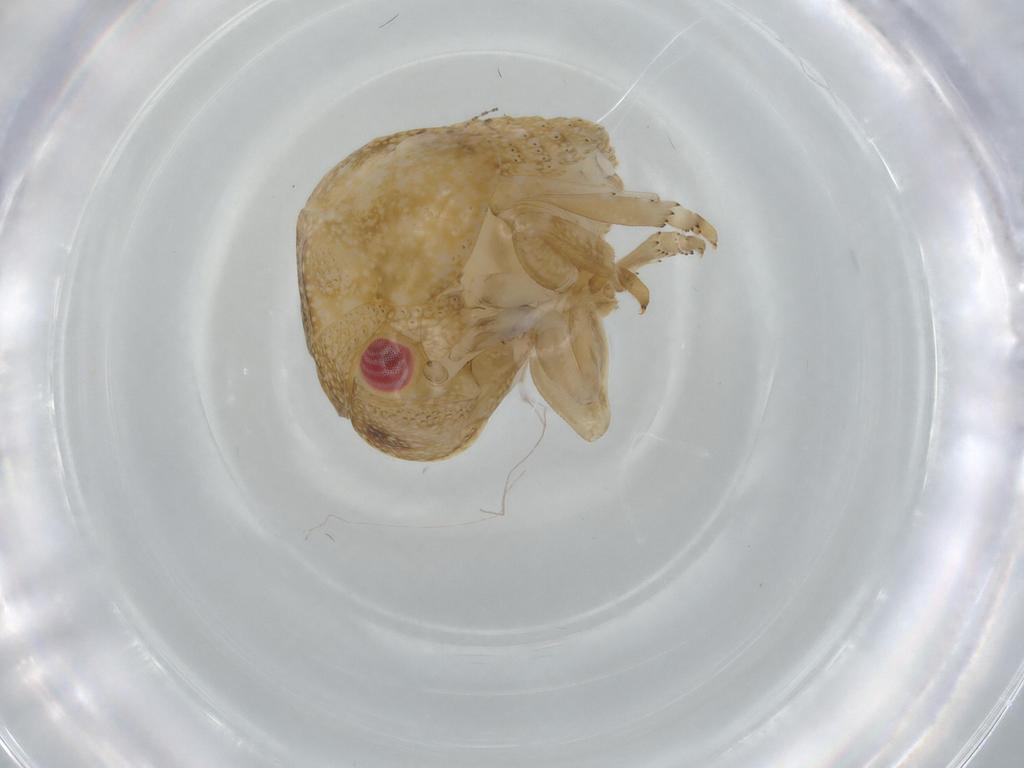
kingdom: Animalia
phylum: Arthropoda
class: Insecta
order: Hemiptera
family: Acanaloniidae
